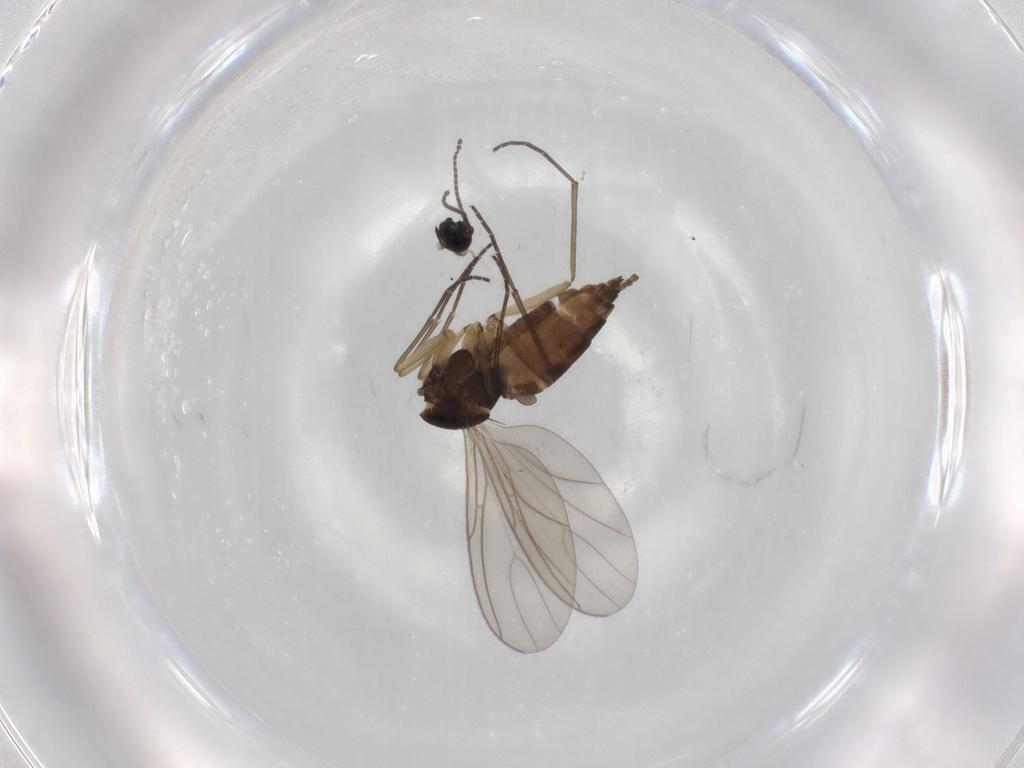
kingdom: Animalia
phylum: Arthropoda
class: Insecta
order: Diptera
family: Sciaridae
